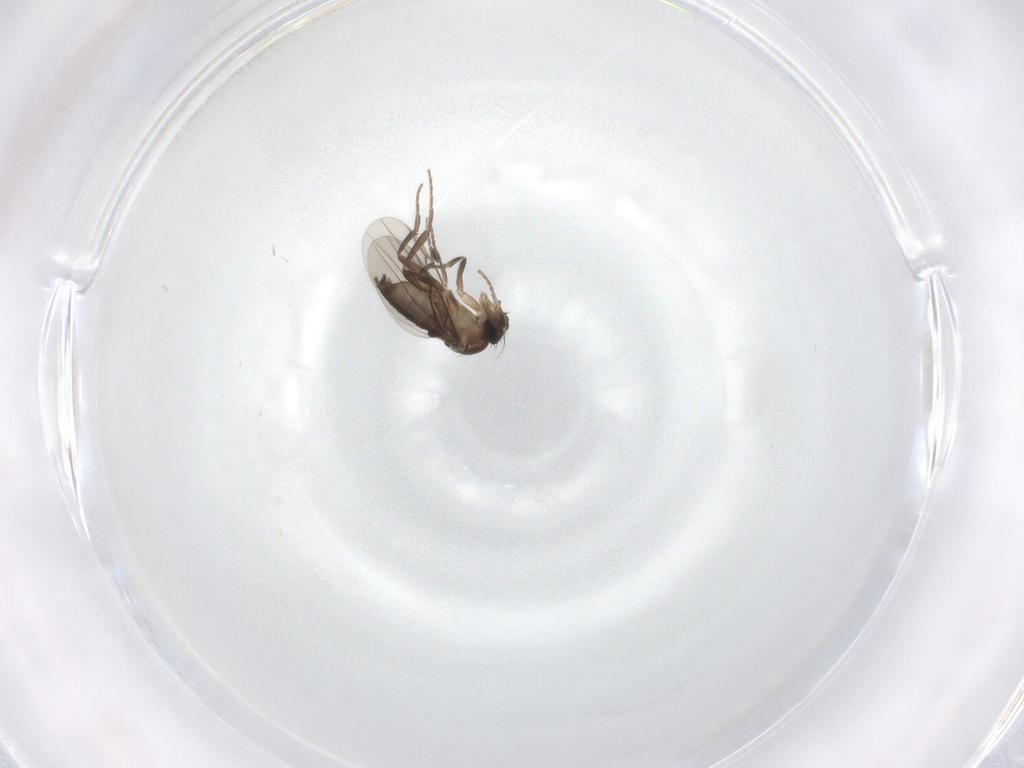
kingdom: Animalia
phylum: Arthropoda
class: Insecta
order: Diptera
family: Phoridae
